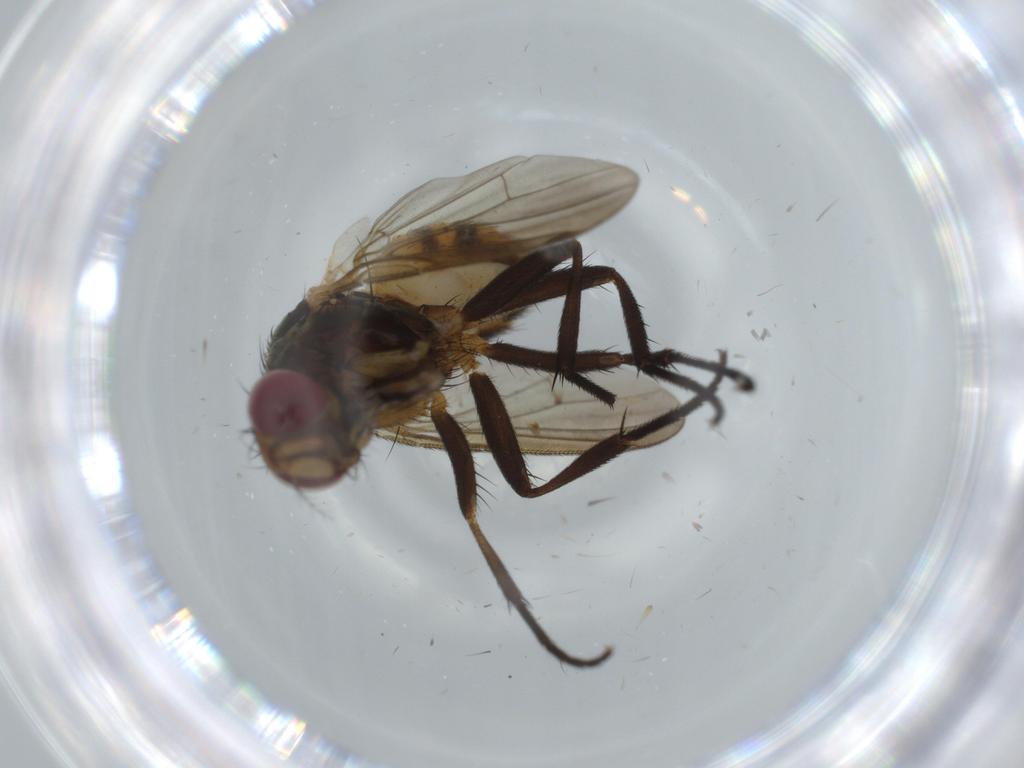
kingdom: Animalia
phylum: Arthropoda
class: Insecta
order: Diptera
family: Anthomyiidae
